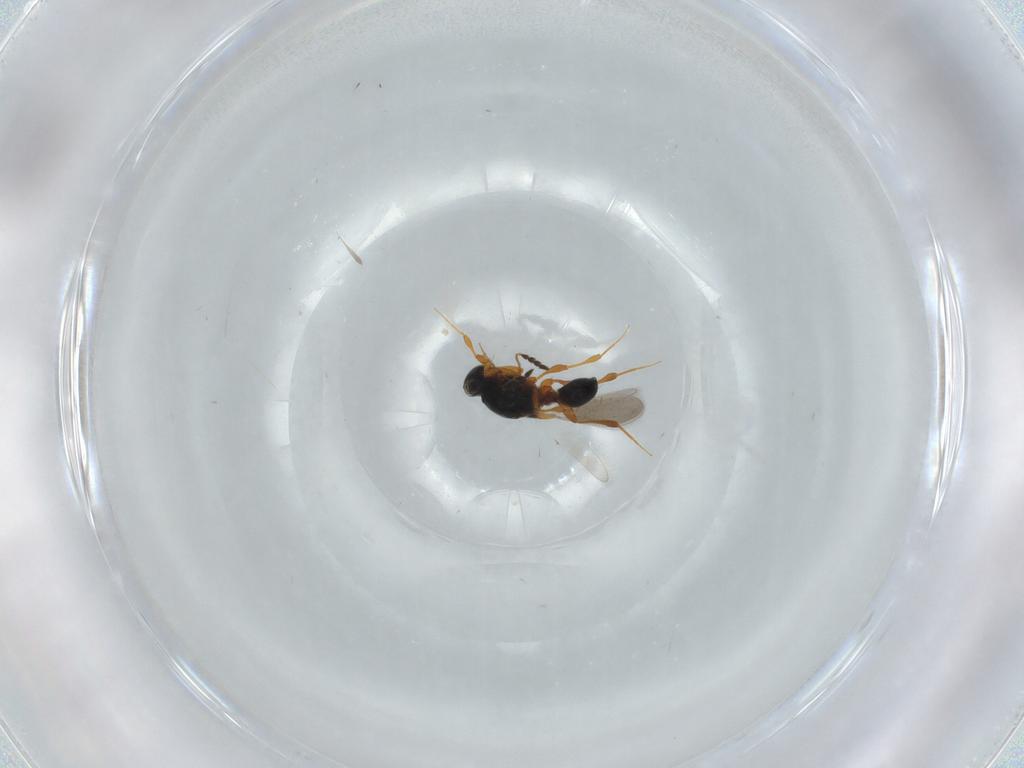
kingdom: Animalia
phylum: Arthropoda
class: Insecta
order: Hymenoptera
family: Platygastridae
